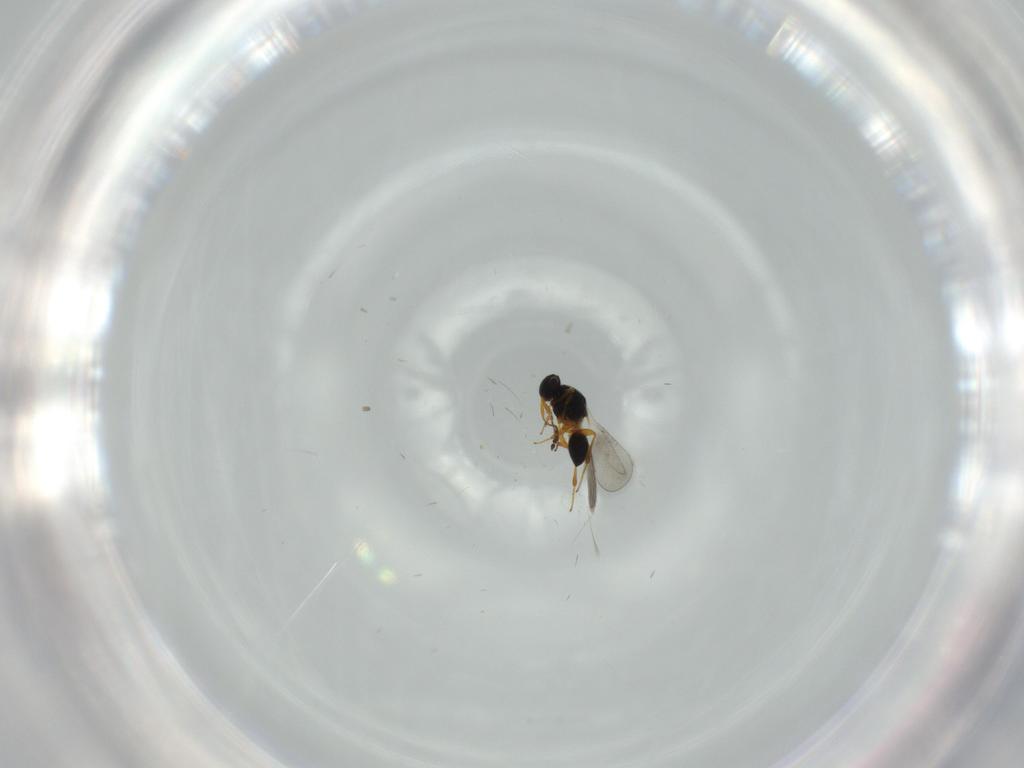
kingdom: Animalia
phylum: Arthropoda
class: Insecta
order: Hymenoptera
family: Platygastridae
